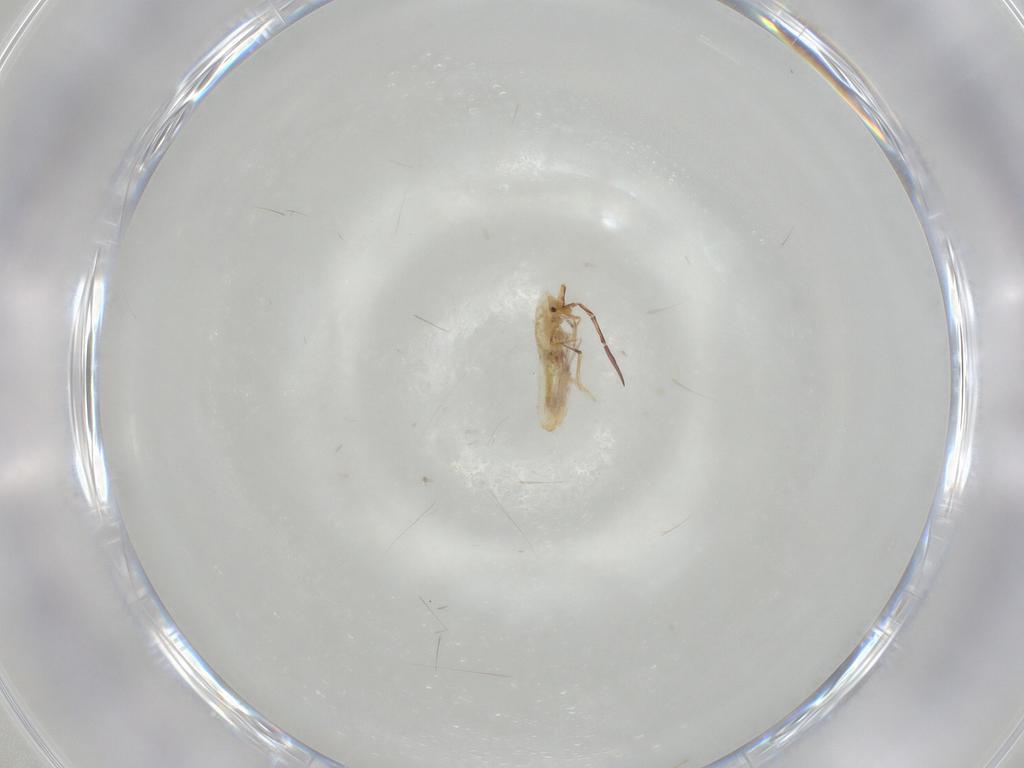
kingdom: Animalia
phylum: Arthropoda
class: Collembola
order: Poduromorpha
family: Hypogastruridae
